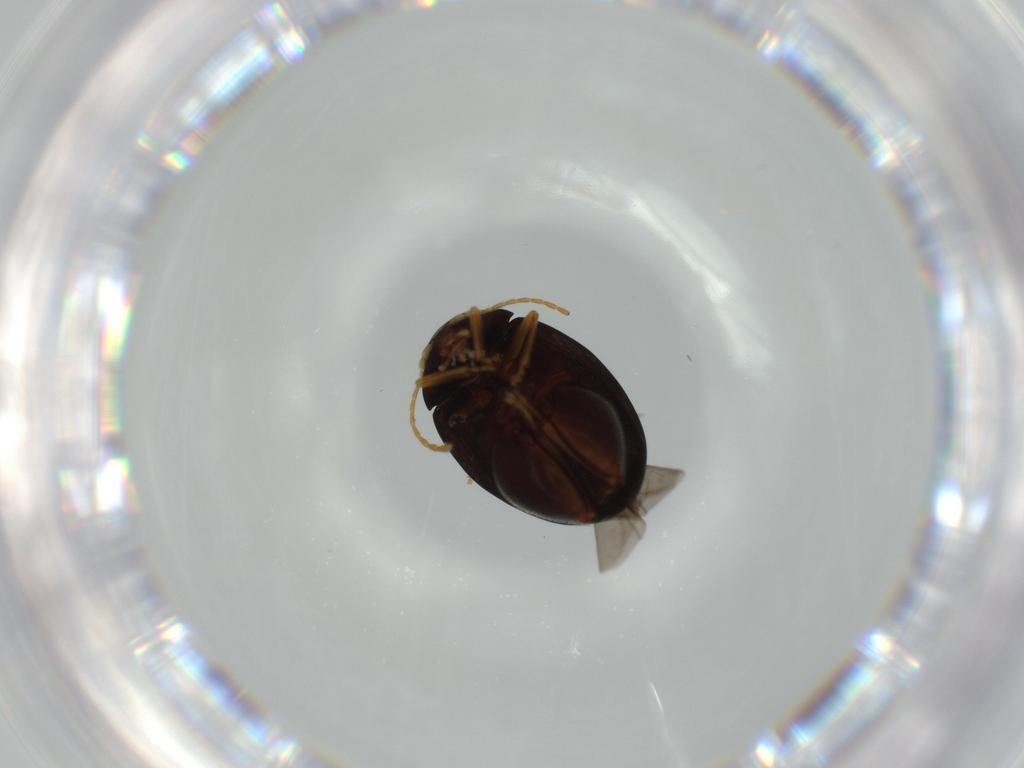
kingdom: Animalia
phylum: Arthropoda
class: Insecta
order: Coleoptera
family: Chrysomelidae
